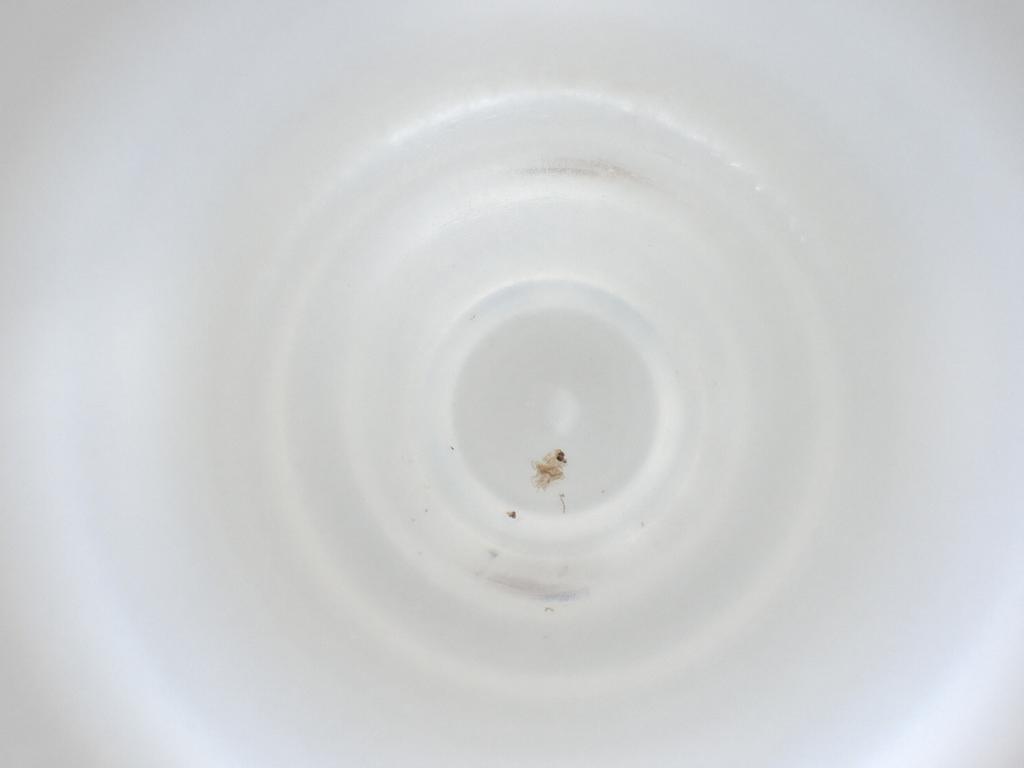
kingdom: Animalia
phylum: Arthropoda
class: Insecta
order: Diptera
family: Cecidomyiidae
